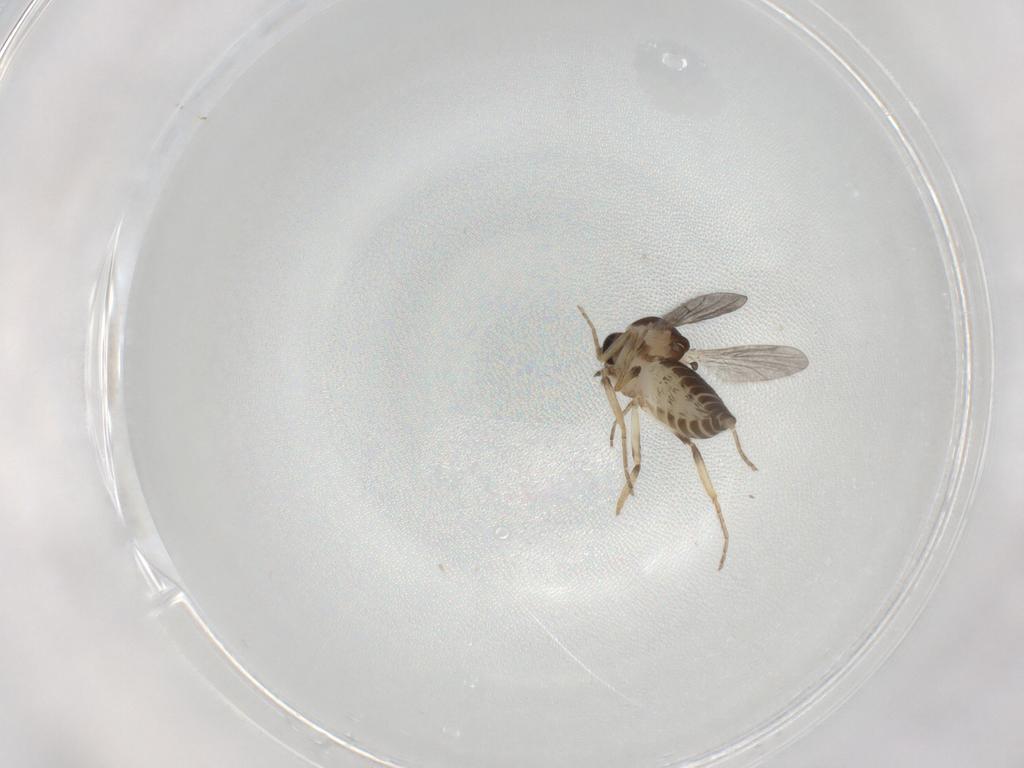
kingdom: Animalia
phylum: Arthropoda
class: Insecta
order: Diptera
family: Ceratopogonidae
